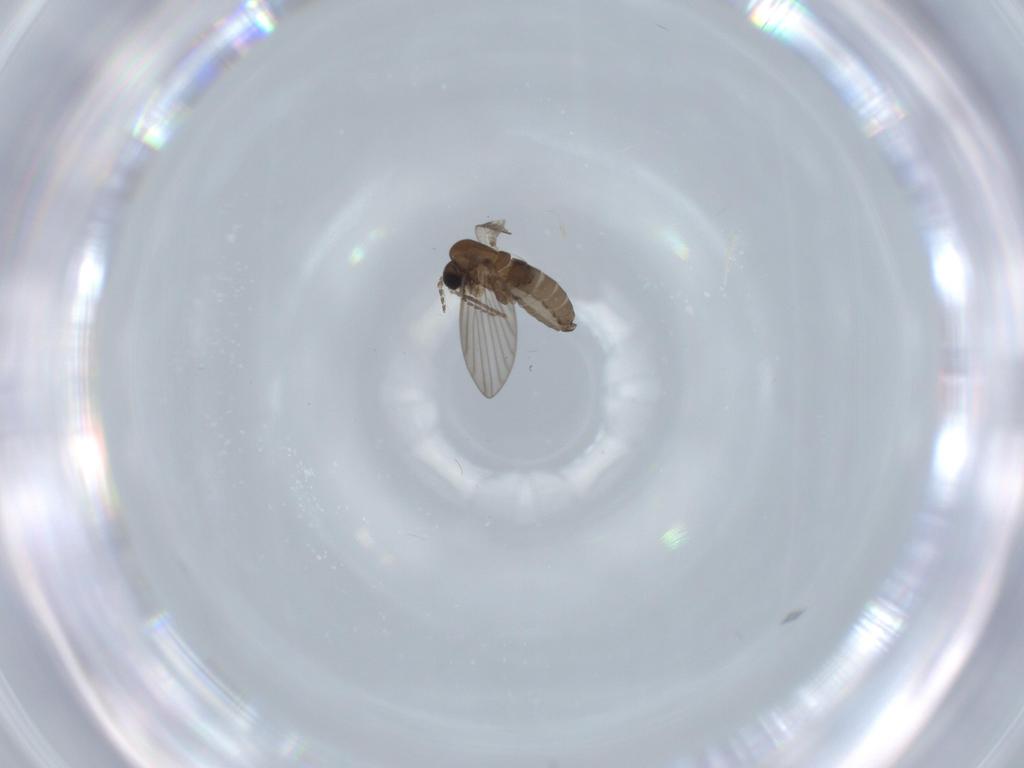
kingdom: Animalia
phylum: Arthropoda
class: Insecta
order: Diptera
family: Psychodidae
